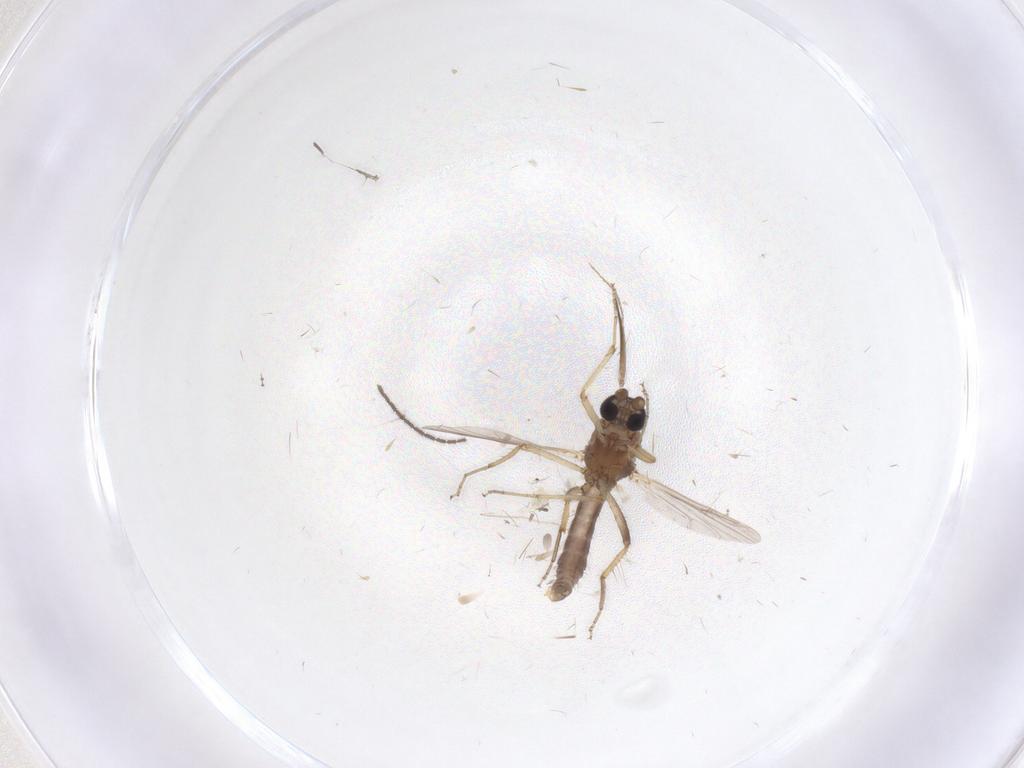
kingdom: Animalia
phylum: Arthropoda
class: Insecta
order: Diptera
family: Ceratopogonidae
